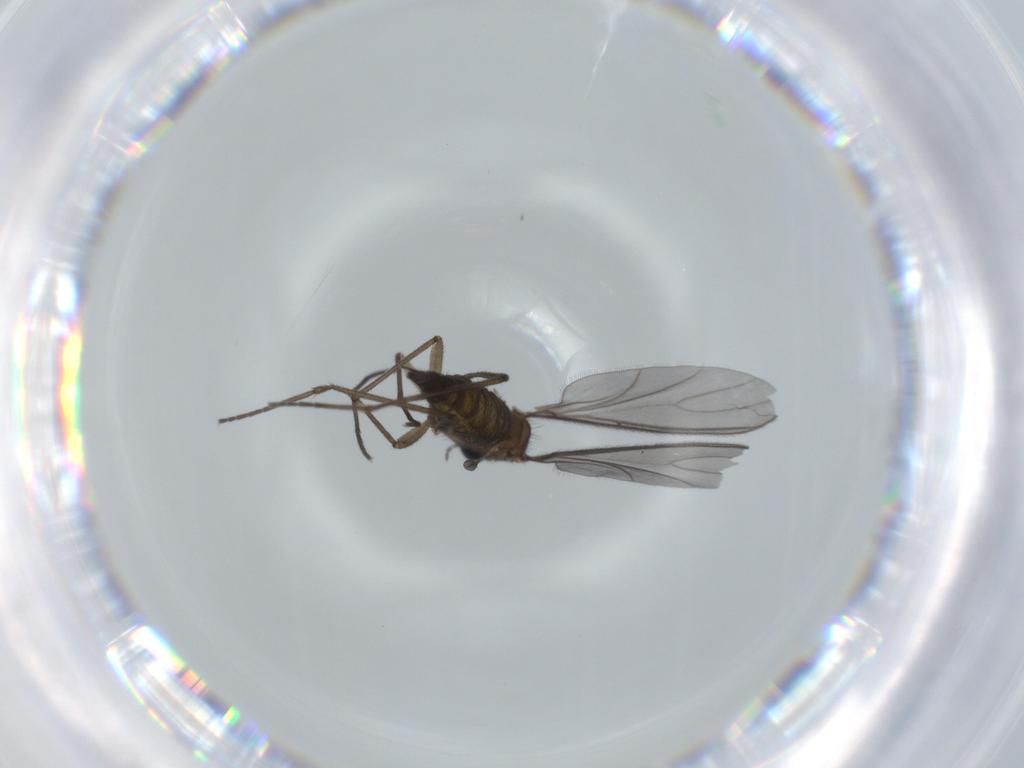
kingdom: Animalia
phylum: Arthropoda
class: Insecta
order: Diptera
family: Sciaridae
